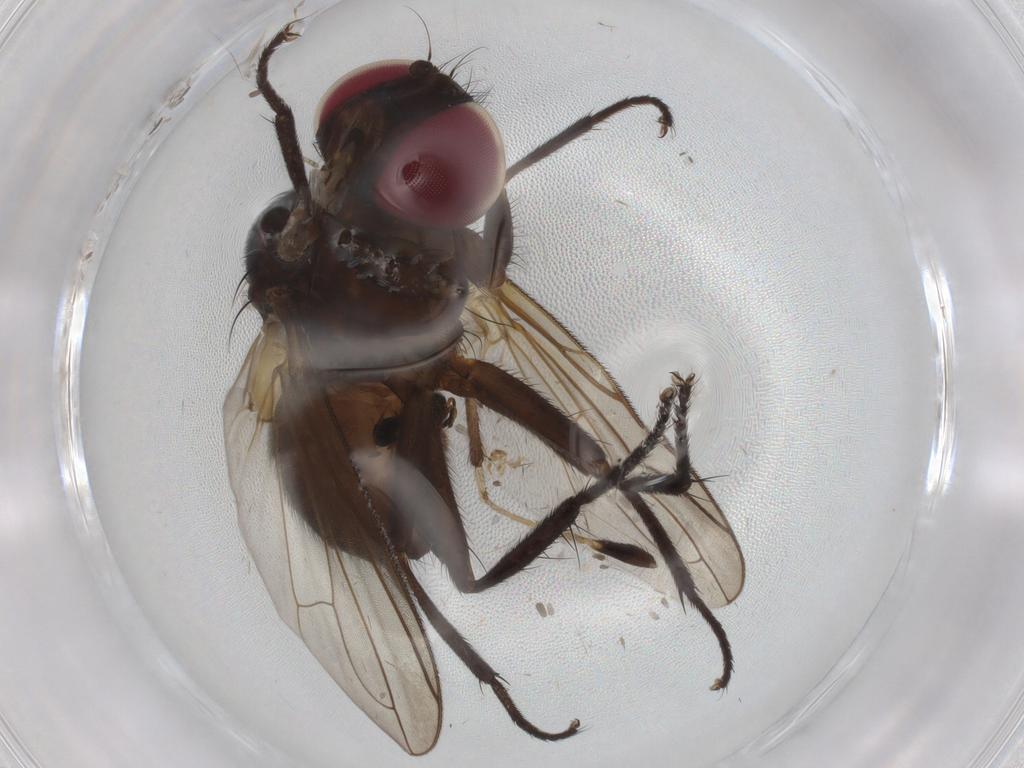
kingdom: Animalia
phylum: Arthropoda
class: Insecta
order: Diptera
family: Tachinidae
